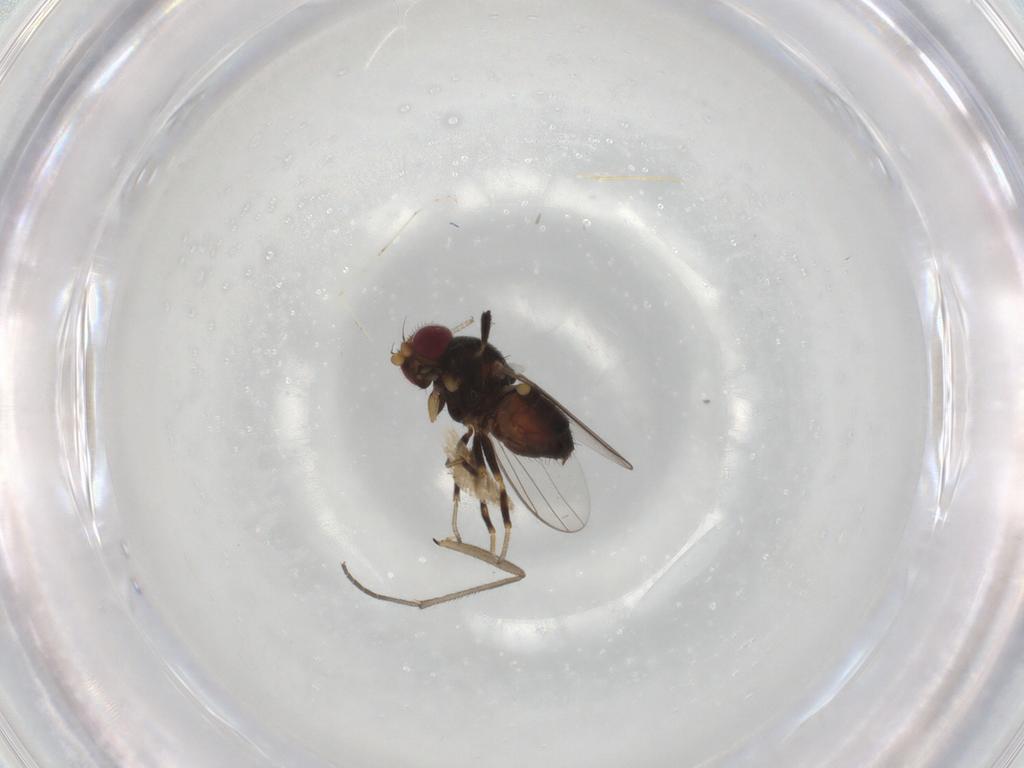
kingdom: Animalia
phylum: Arthropoda
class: Insecta
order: Diptera
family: Chloropidae
